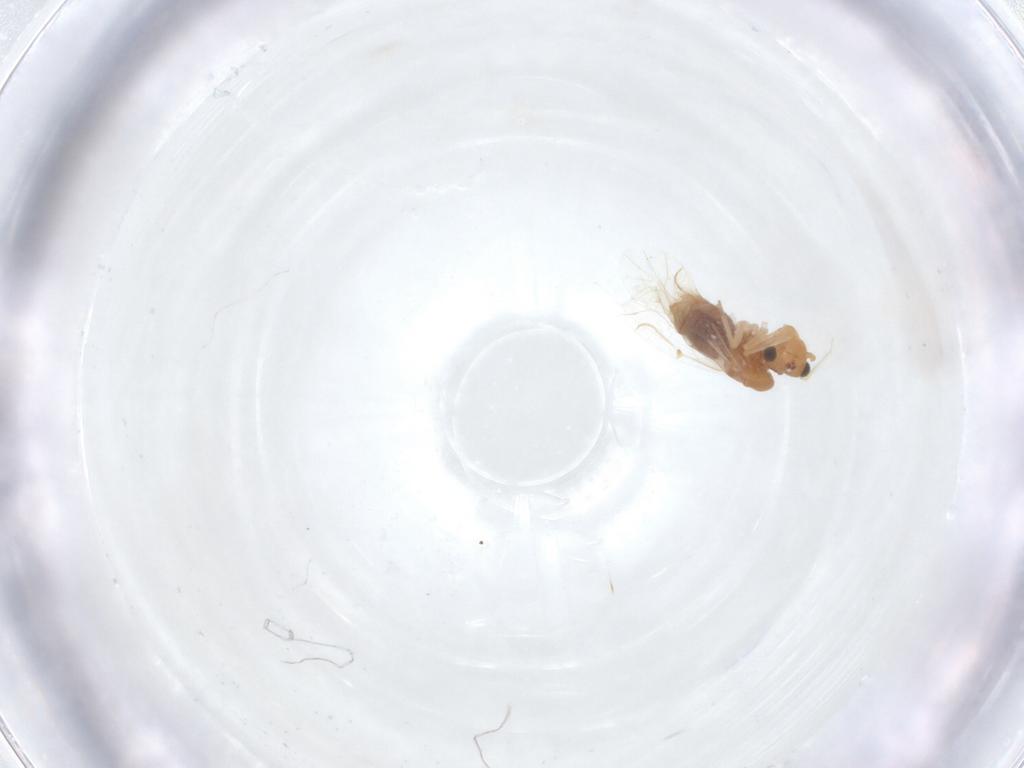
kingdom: Animalia
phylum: Arthropoda
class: Insecta
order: Psocodea
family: Lachesillidae
